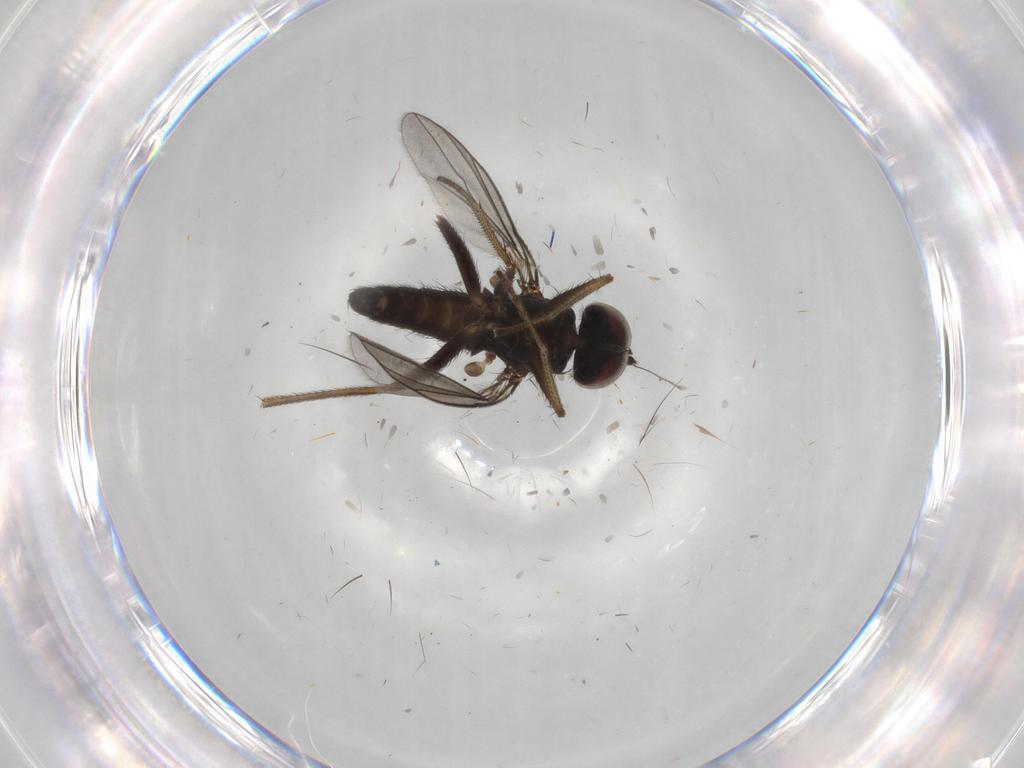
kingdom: Animalia
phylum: Arthropoda
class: Insecta
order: Diptera
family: Dolichopodidae
